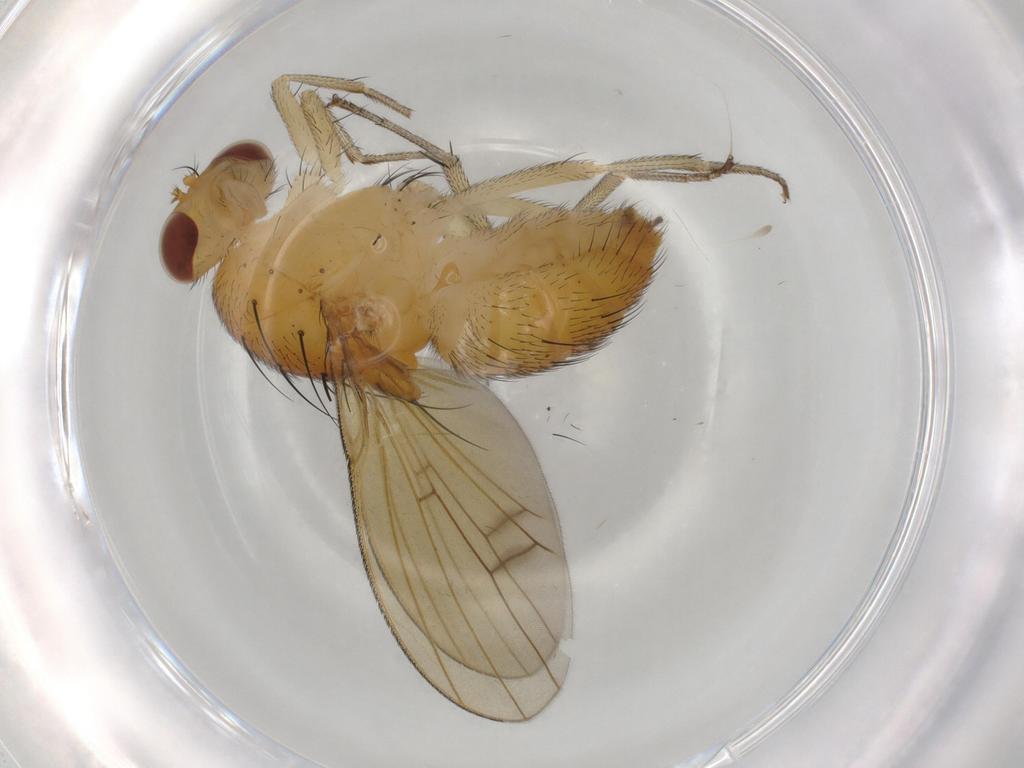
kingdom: Animalia
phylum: Arthropoda
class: Insecta
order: Diptera
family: Lauxaniidae
